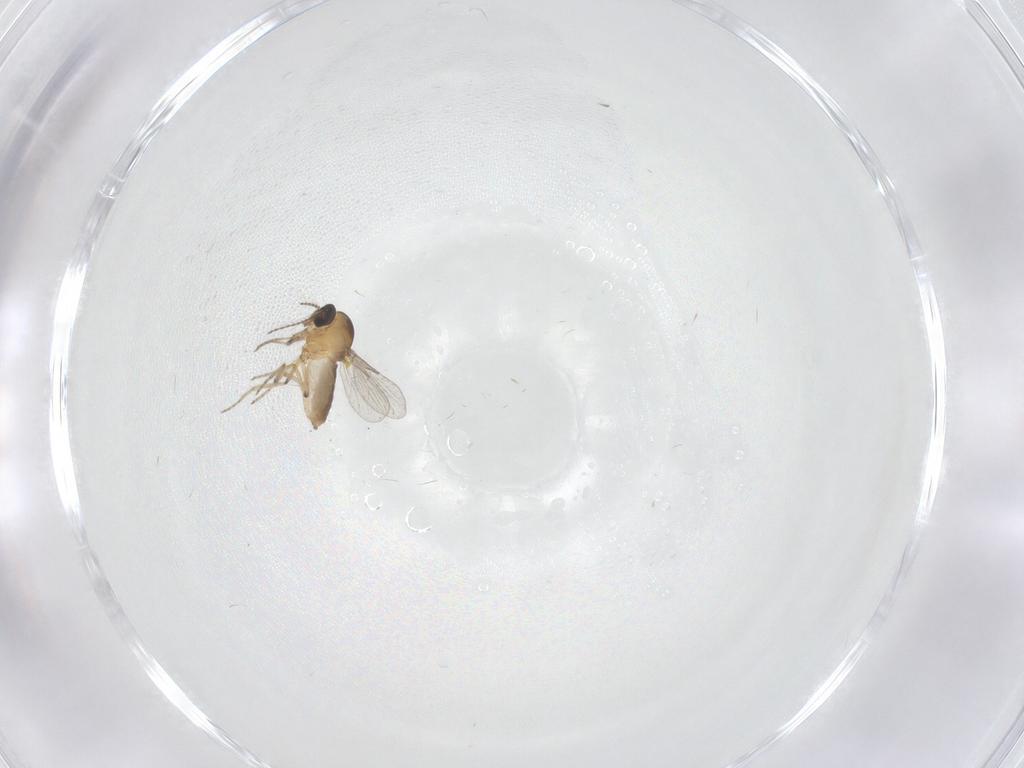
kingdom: Animalia
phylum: Arthropoda
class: Insecta
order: Diptera
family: Ceratopogonidae
